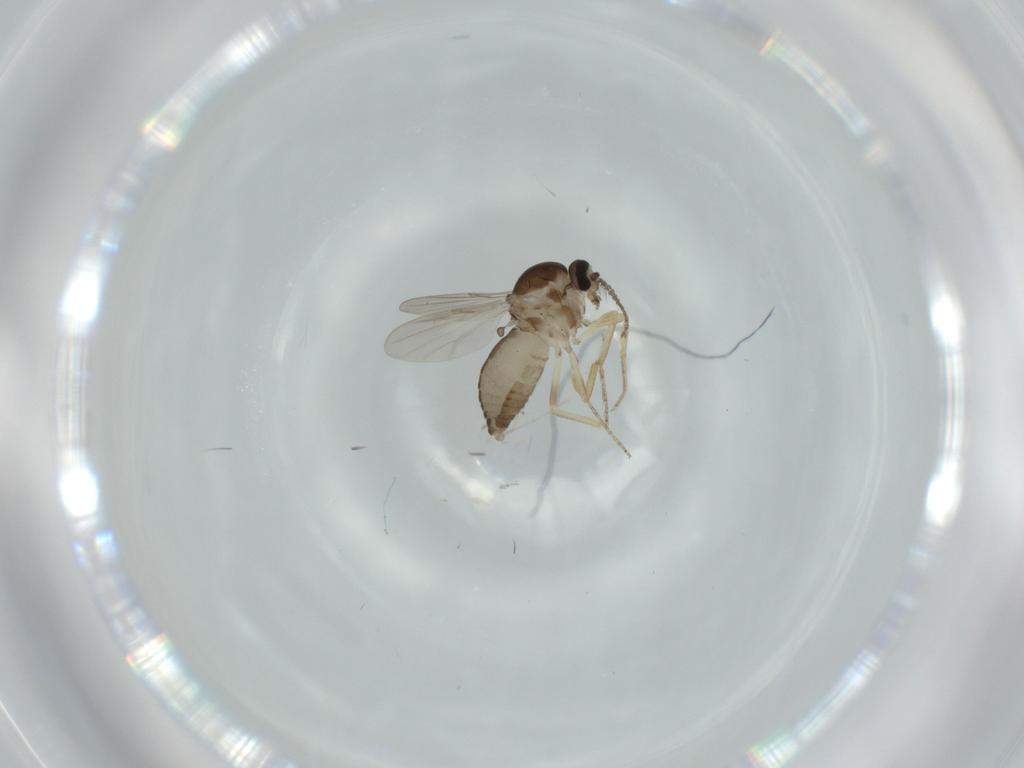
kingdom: Animalia
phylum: Arthropoda
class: Insecta
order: Diptera
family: Ceratopogonidae
